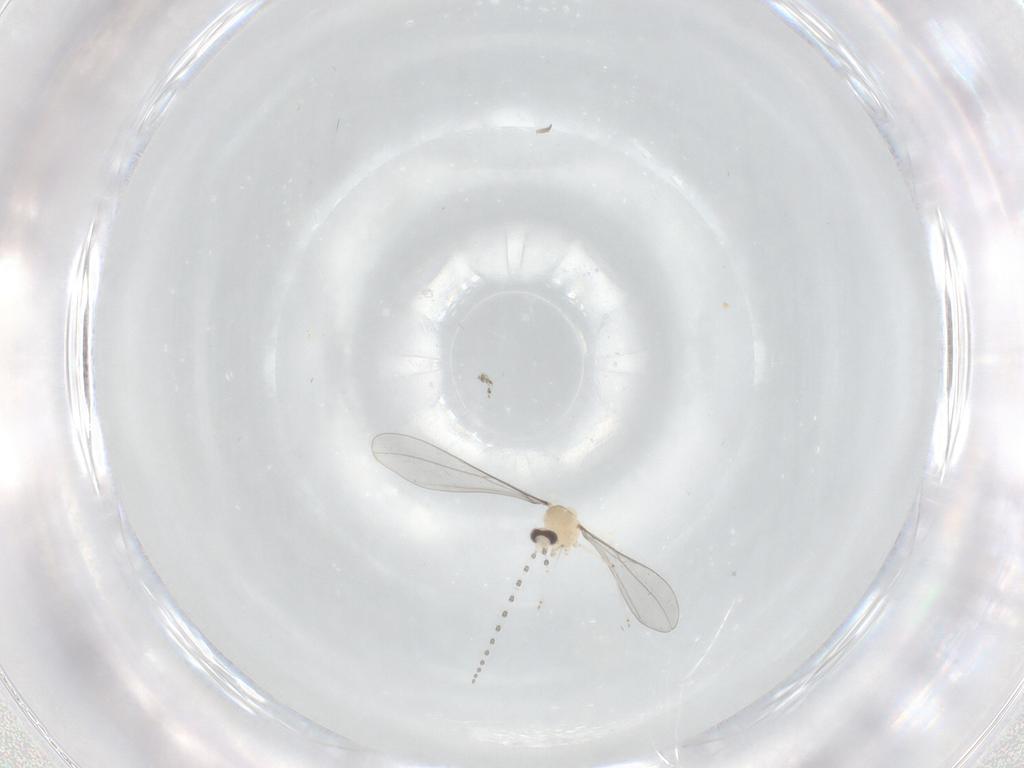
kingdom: Animalia
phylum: Arthropoda
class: Insecta
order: Diptera
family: Cecidomyiidae
